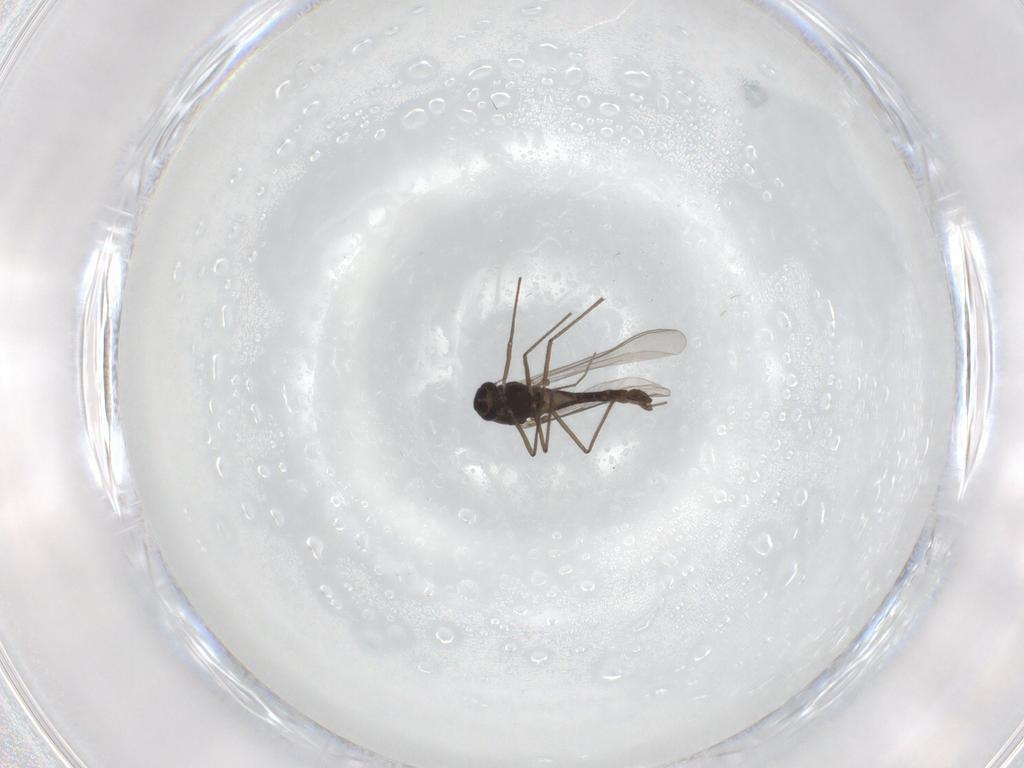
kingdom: Animalia
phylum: Arthropoda
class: Insecta
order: Diptera
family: Chironomidae
